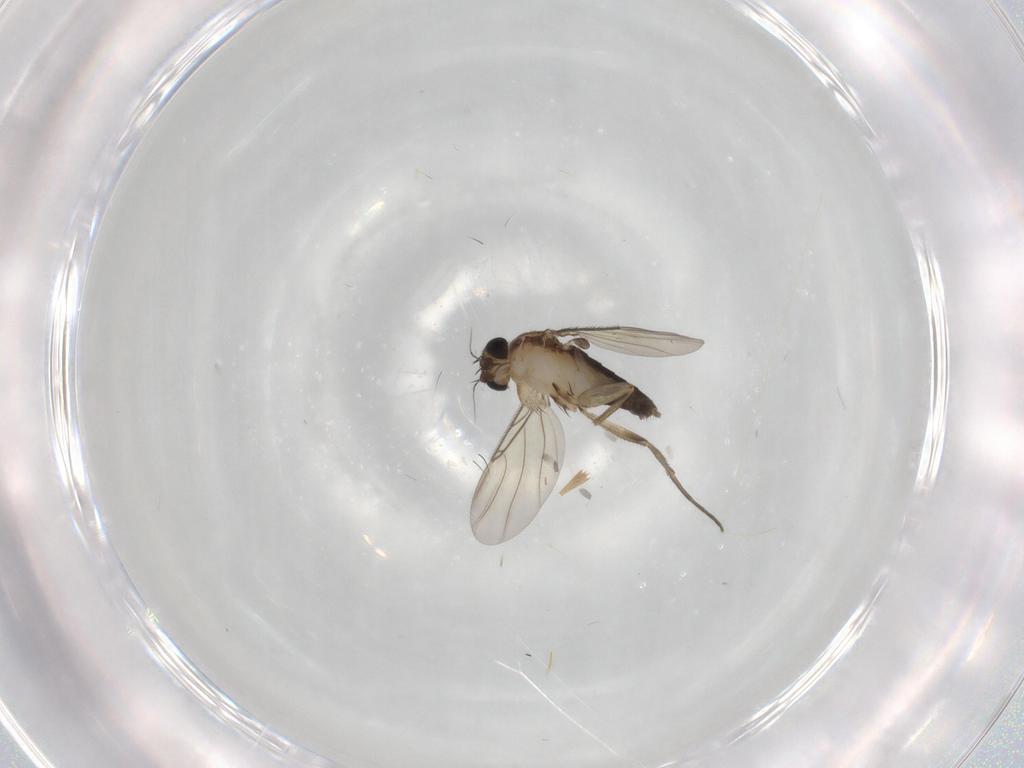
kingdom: Animalia
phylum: Arthropoda
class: Insecta
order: Diptera
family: Phoridae
